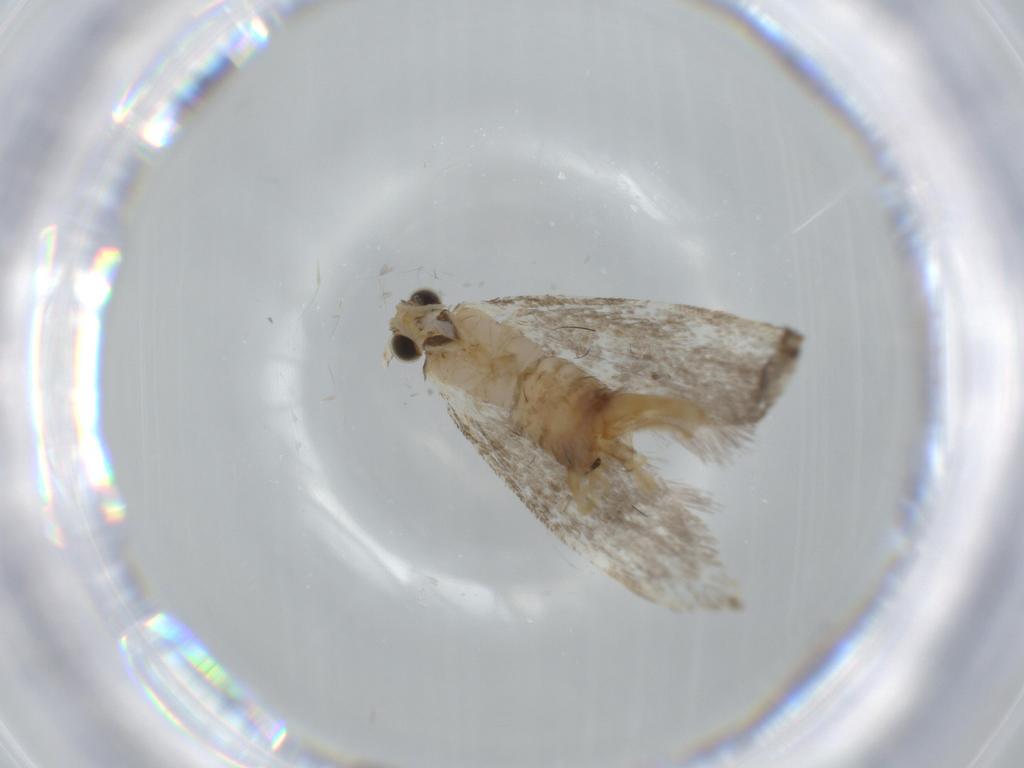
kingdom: Animalia
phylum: Arthropoda
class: Insecta
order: Lepidoptera
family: Tineidae
